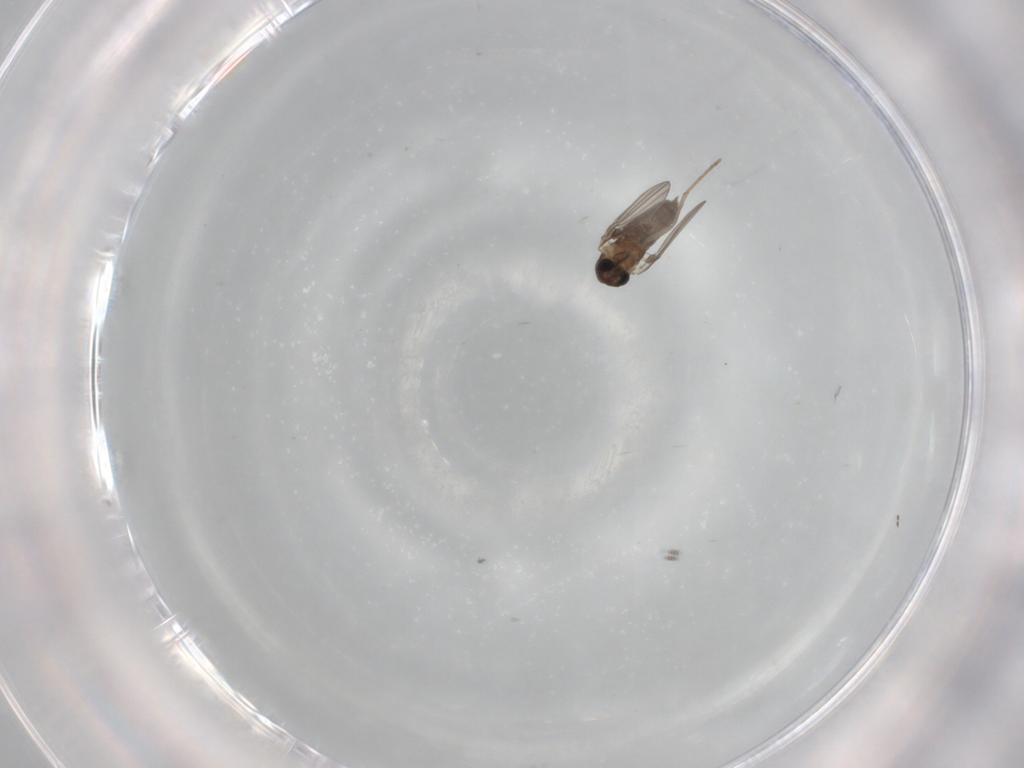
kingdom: Animalia
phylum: Arthropoda
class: Insecta
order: Diptera
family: Psychodidae
